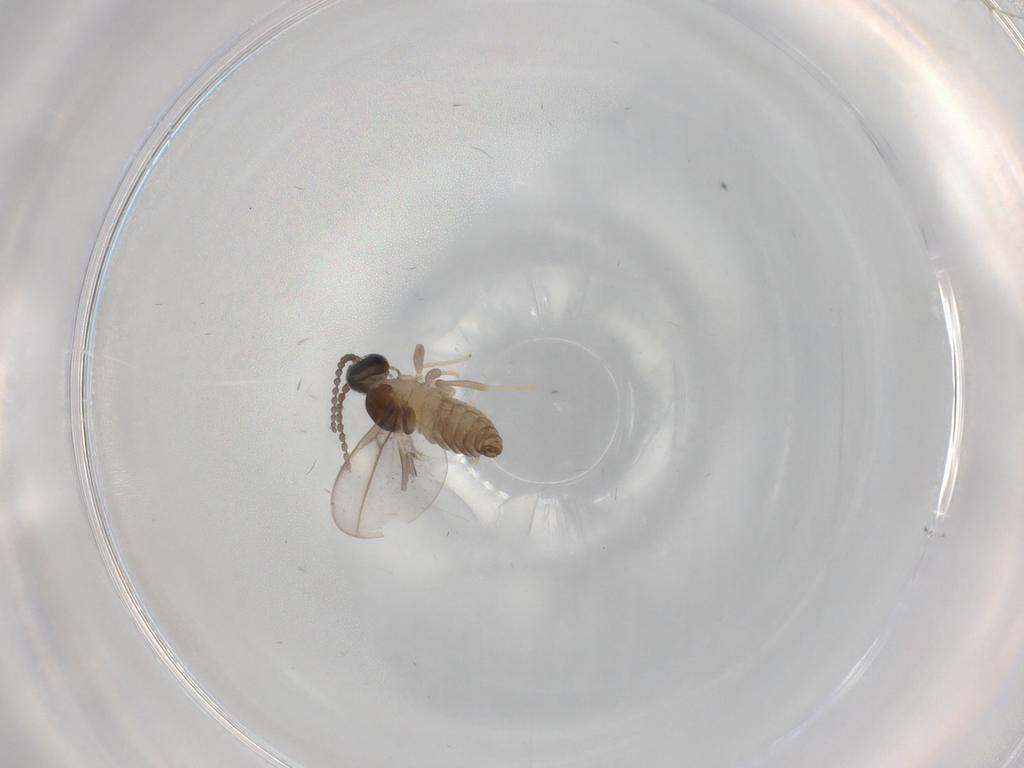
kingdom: Animalia
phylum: Arthropoda
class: Insecta
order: Diptera
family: Cecidomyiidae
